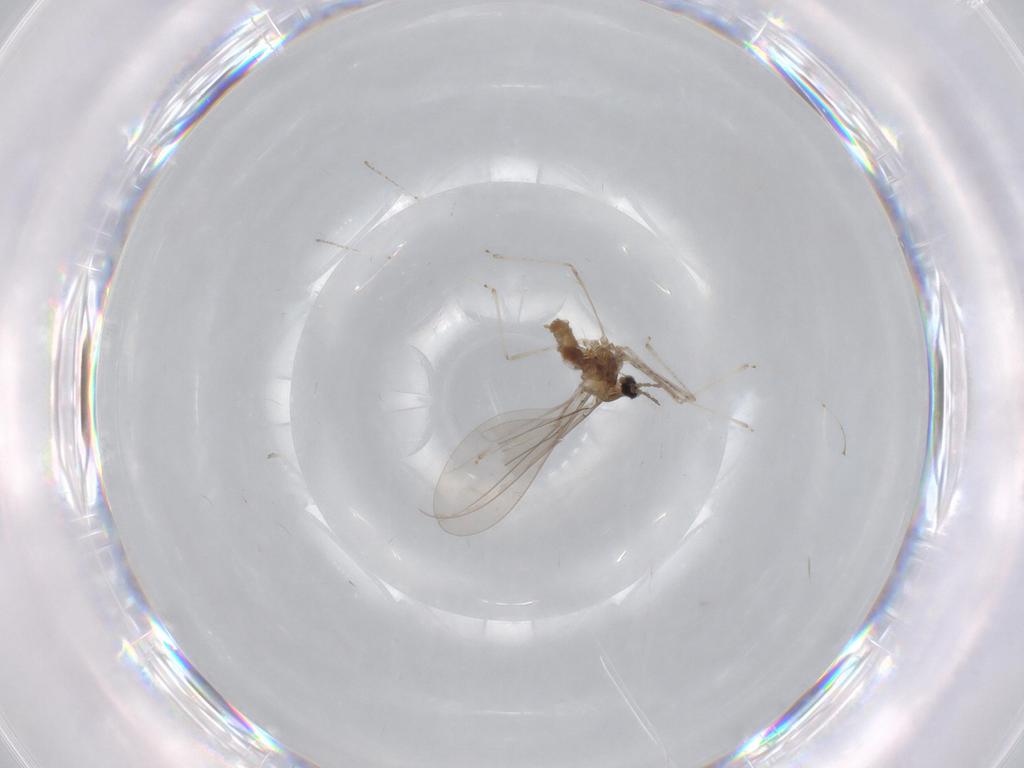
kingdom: Animalia
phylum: Arthropoda
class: Insecta
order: Diptera
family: Cecidomyiidae
